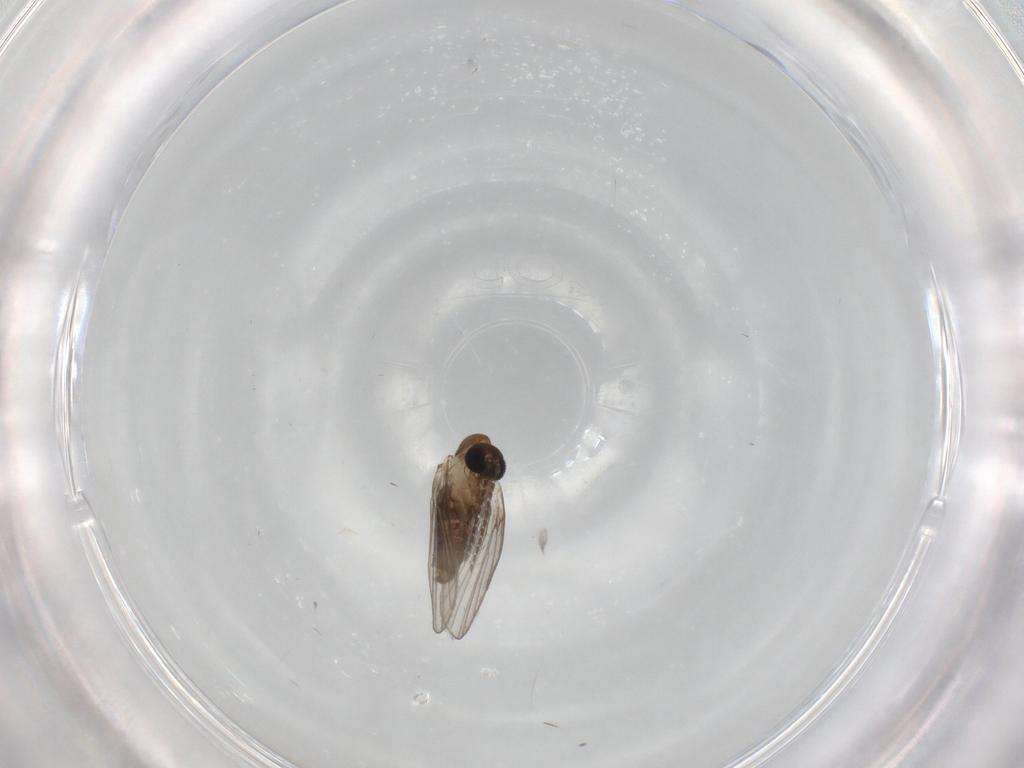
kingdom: Animalia
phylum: Arthropoda
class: Insecta
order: Diptera
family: Psychodidae
